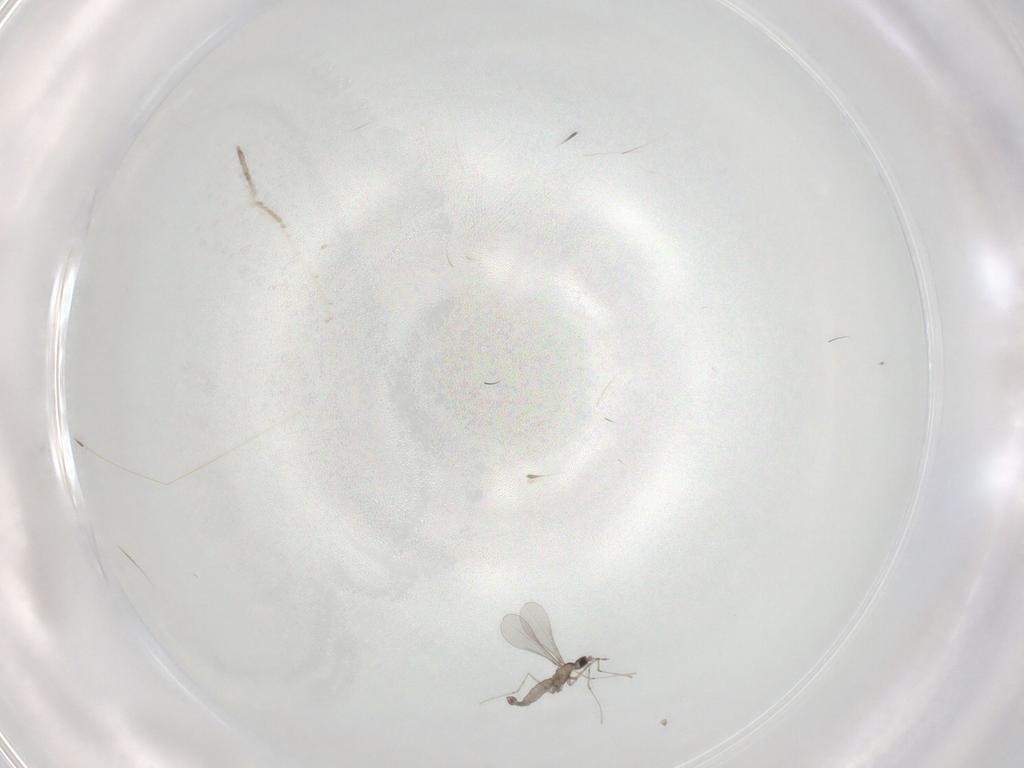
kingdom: Animalia
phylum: Arthropoda
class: Insecta
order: Diptera
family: Cecidomyiidae
